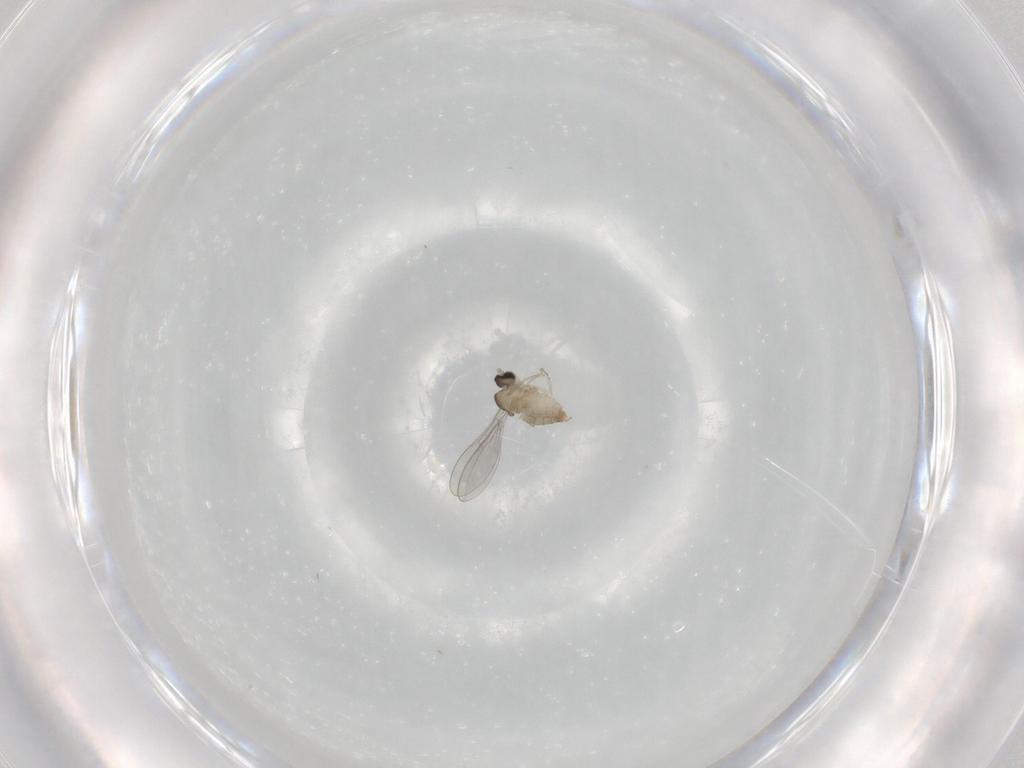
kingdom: Animalia
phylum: Arthropoda
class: Insecta
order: Diptera
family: Cecidomyiidae
